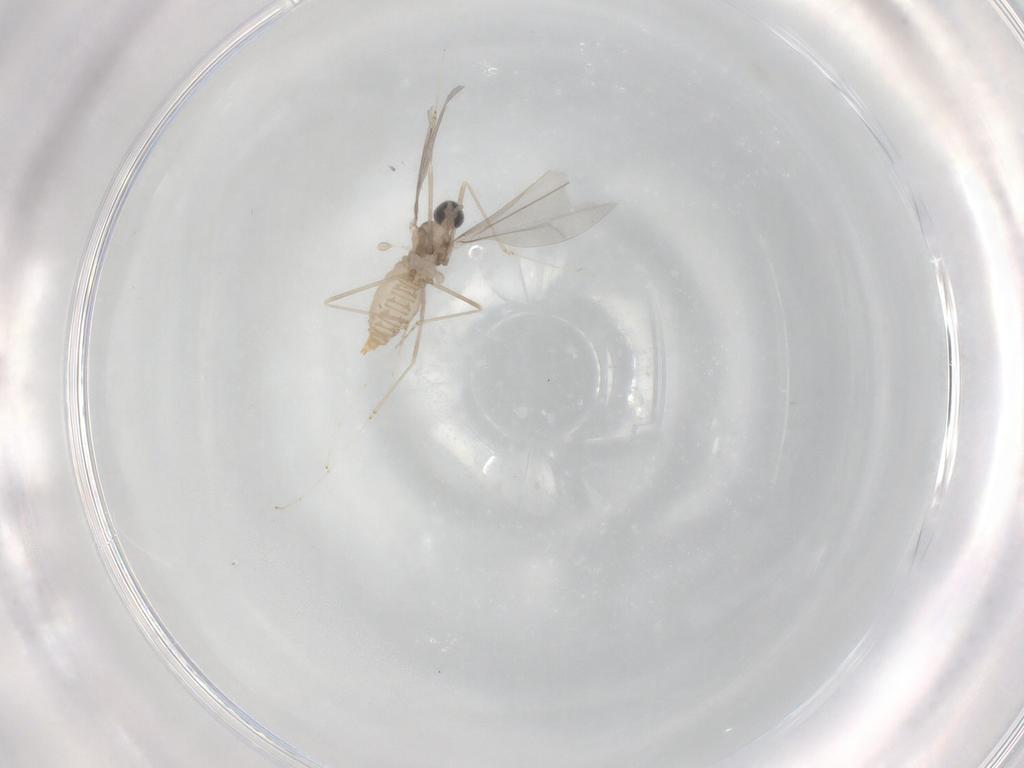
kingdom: Animalia
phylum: Arthropoda
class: Insecta
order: Diptera
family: Cecidomyiidae
